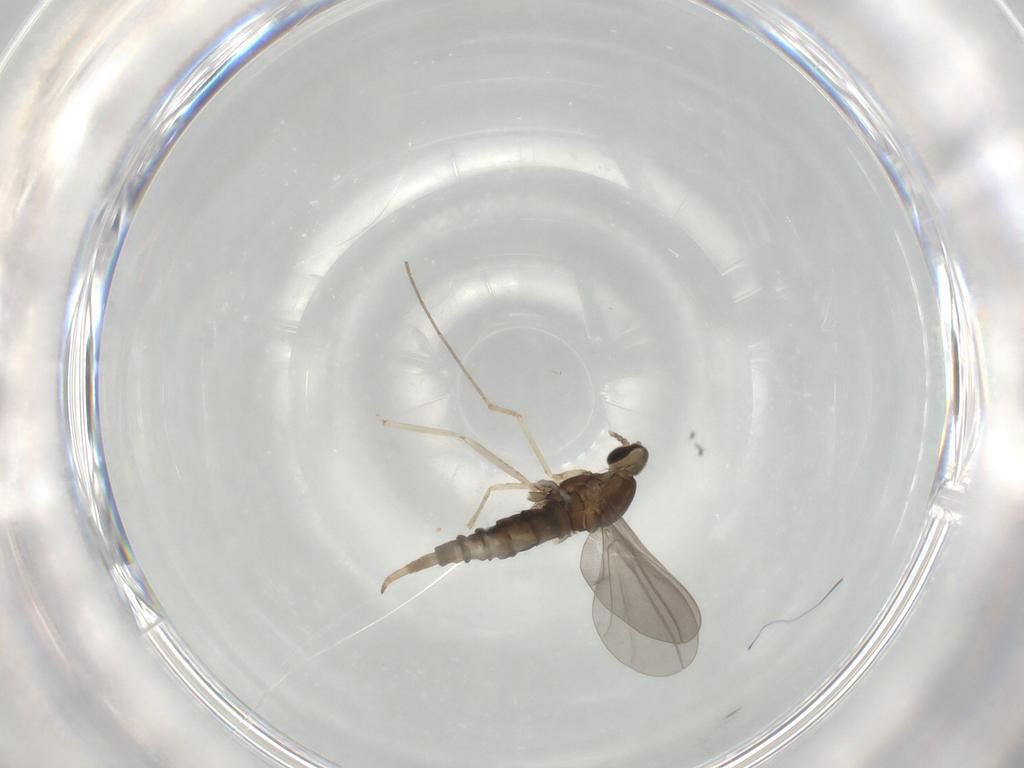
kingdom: Animalia
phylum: Arthropoda
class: Insecta
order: Diptera
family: Cecidomyiidae
